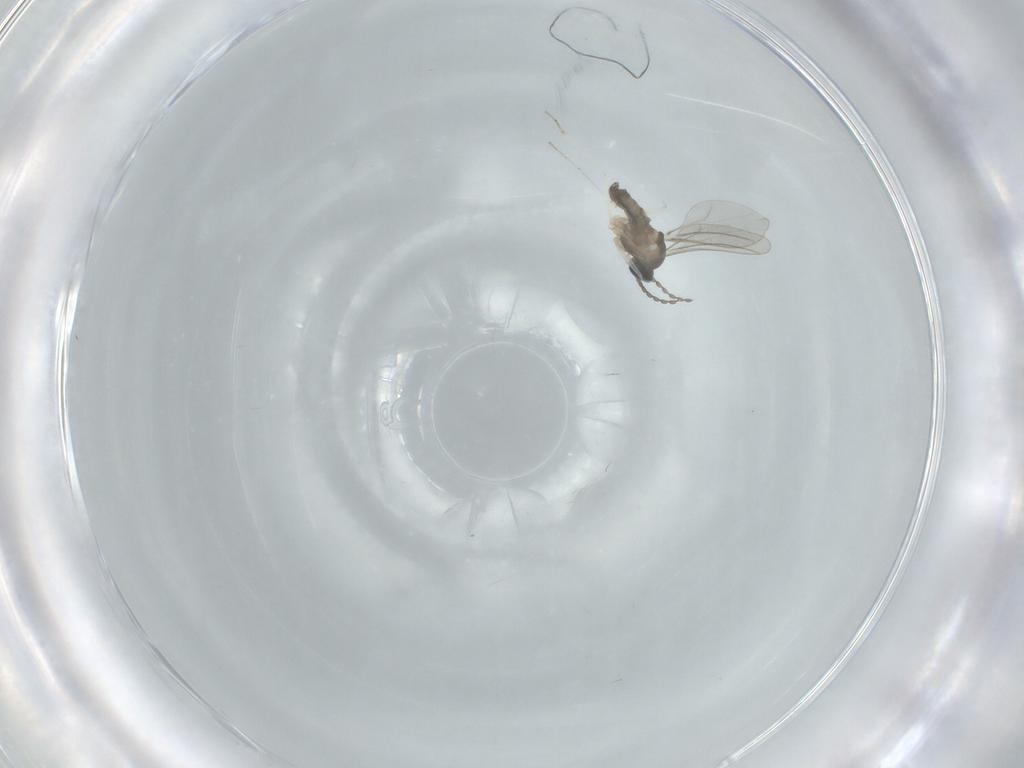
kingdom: Animalia
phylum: Arthropoda
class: Insecta
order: Diptera
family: Cecidomyiidae
